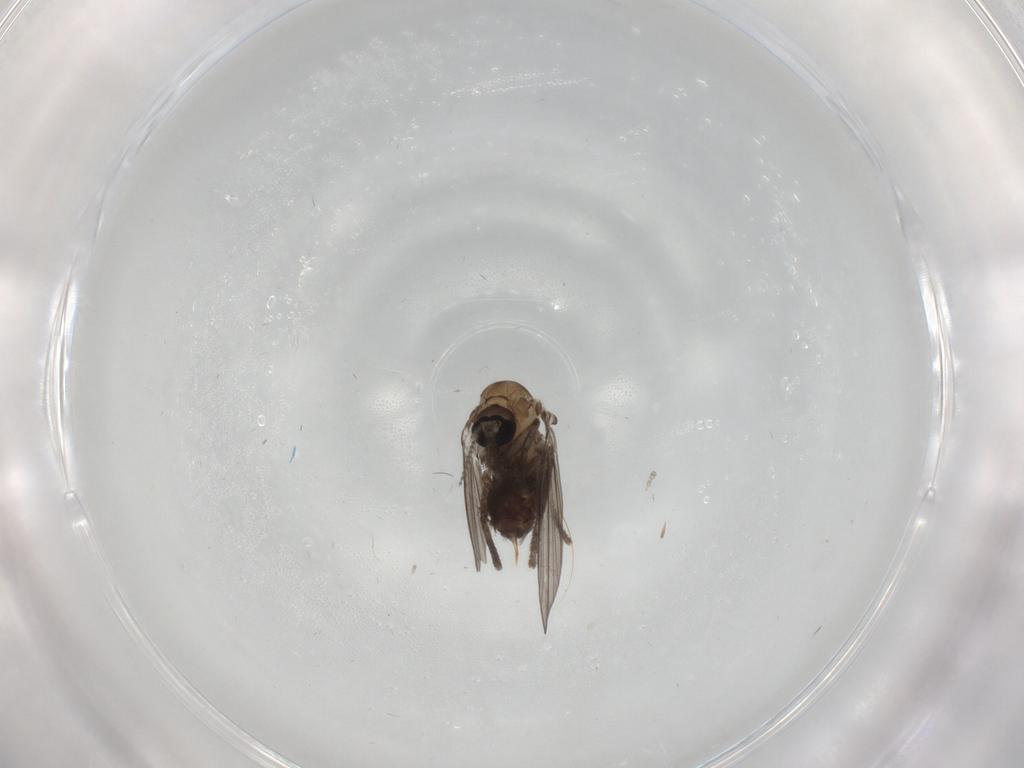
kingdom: Animalia
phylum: Arthropoda
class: Insecta
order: Diptera
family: Psychodidae
